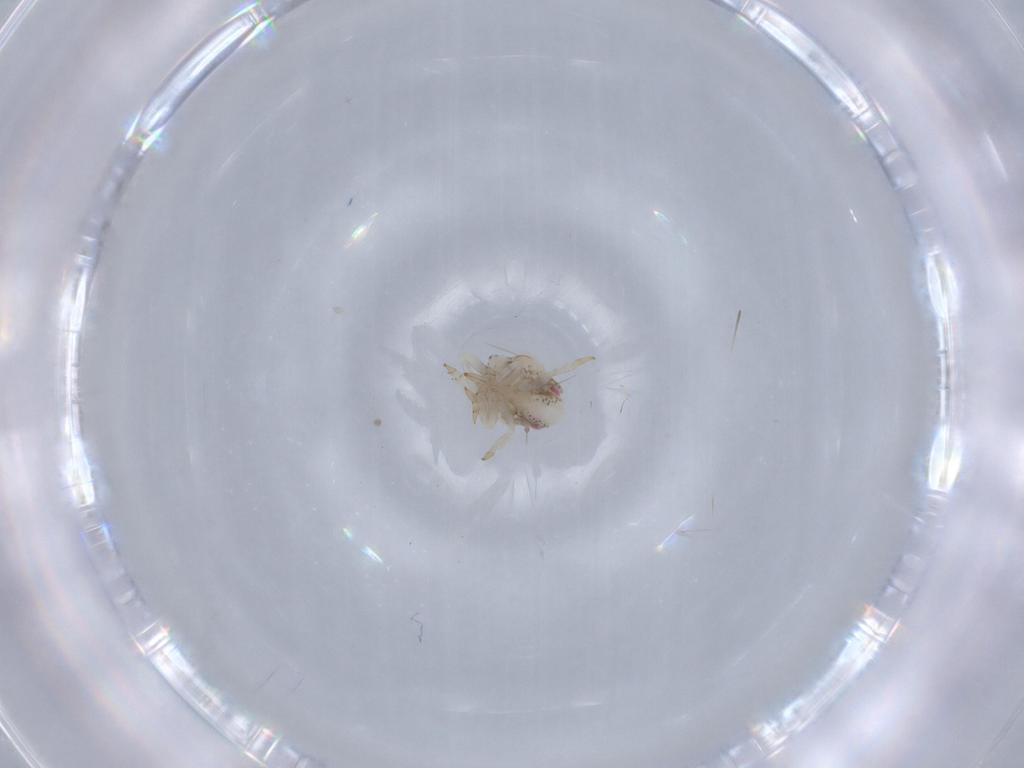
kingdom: Animalia
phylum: Arthropoda
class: Insecta
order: Hemiptera
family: Acanaloniidae
